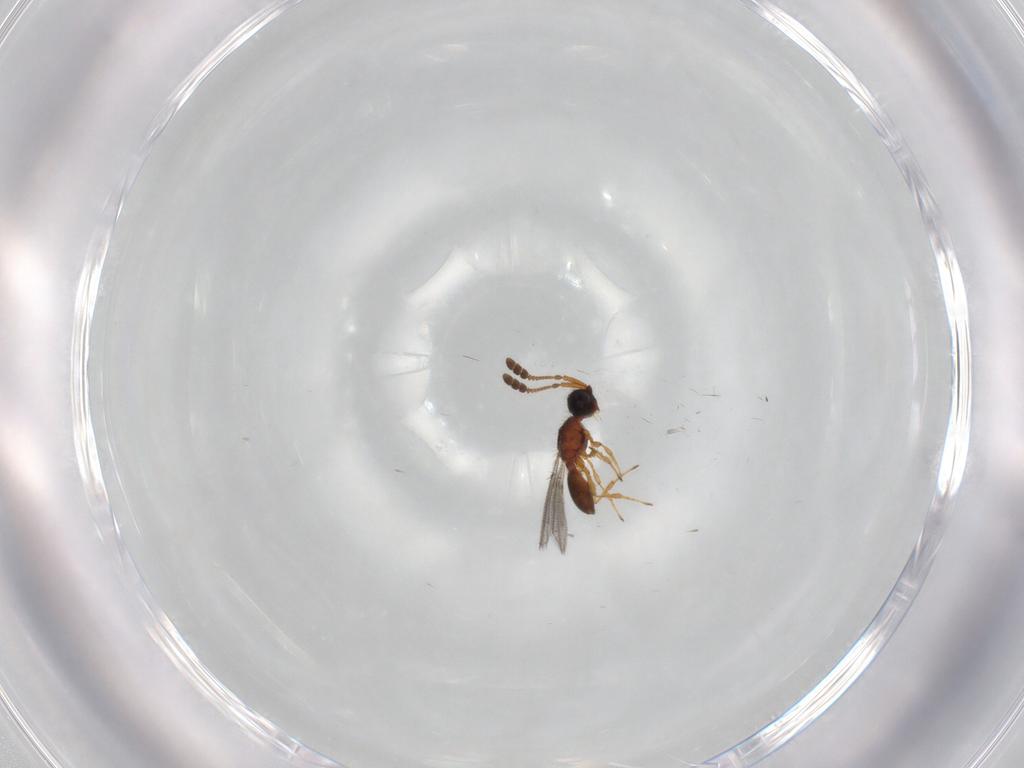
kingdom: Animalia
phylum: Arthropoda
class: Insecta
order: Hymenoptera
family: Diapriidae
